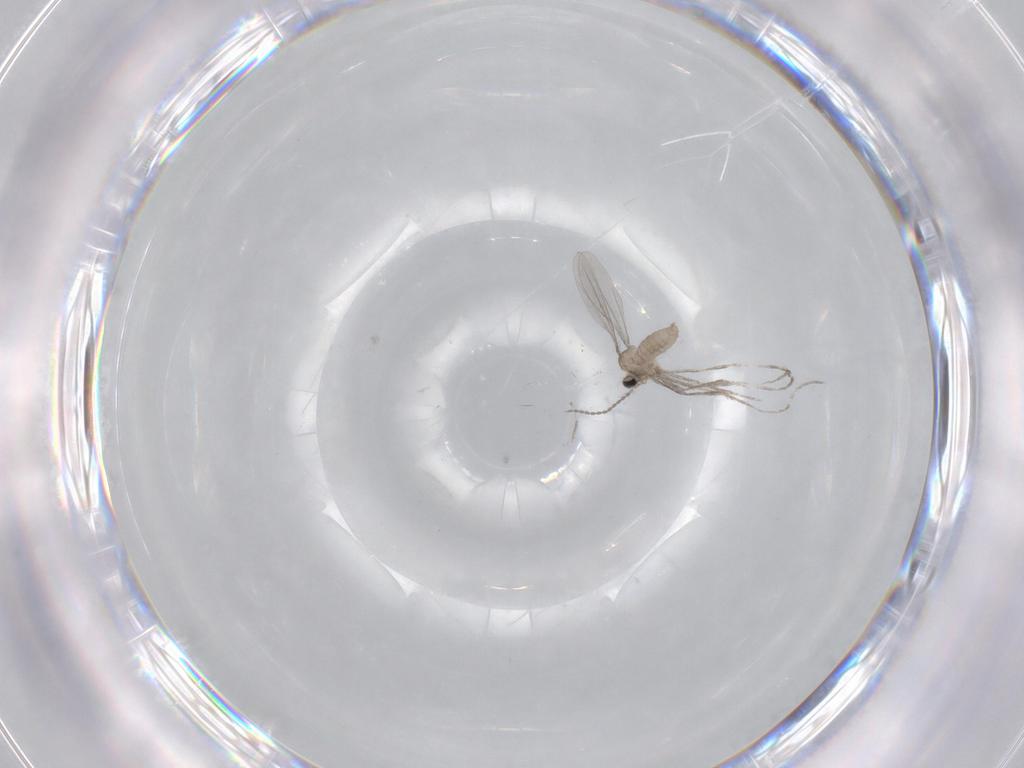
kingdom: Animalia
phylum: Arthropoda
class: Insecta
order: Diptera
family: Cecidomyiidae
